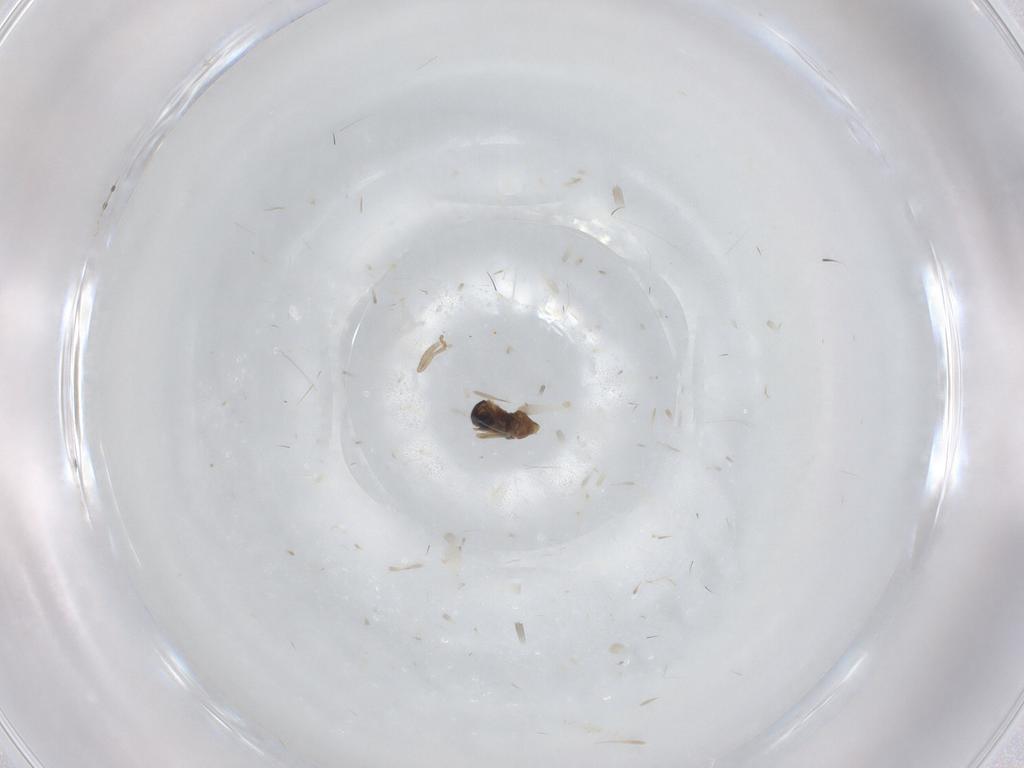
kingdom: Animalia
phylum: Arthropoda
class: Insecta
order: Diptera
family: Cecidomyiidae
